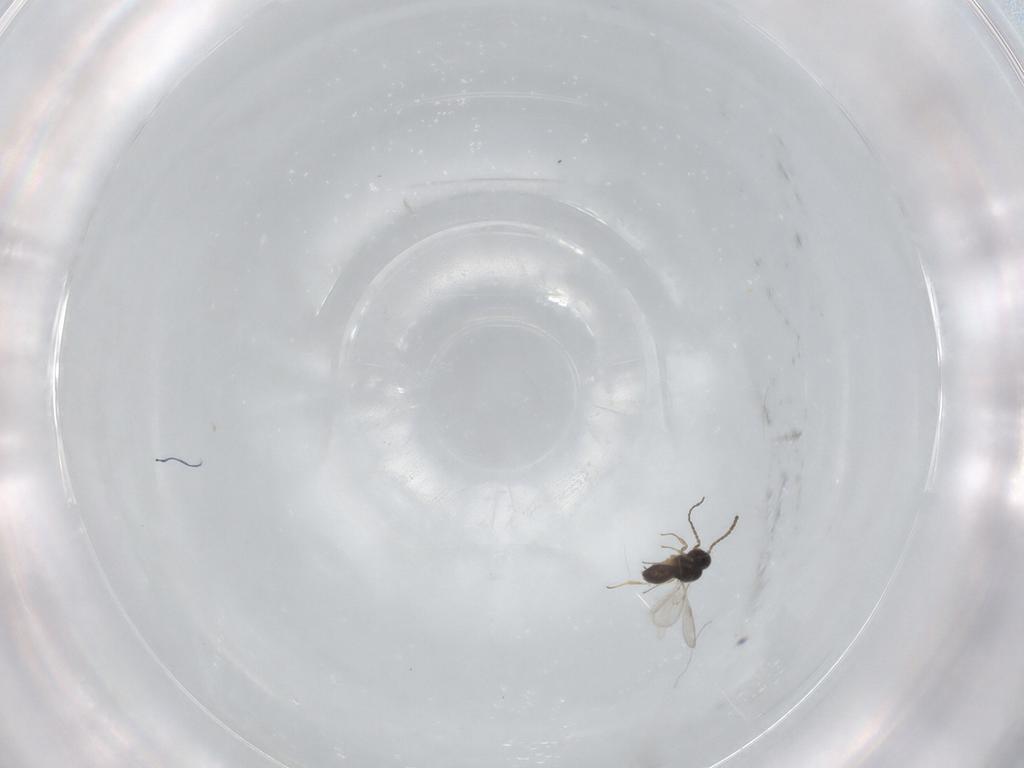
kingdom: Animalia
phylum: Arthropoda
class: Insecta
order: Hymenoptera
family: Scelionidae
